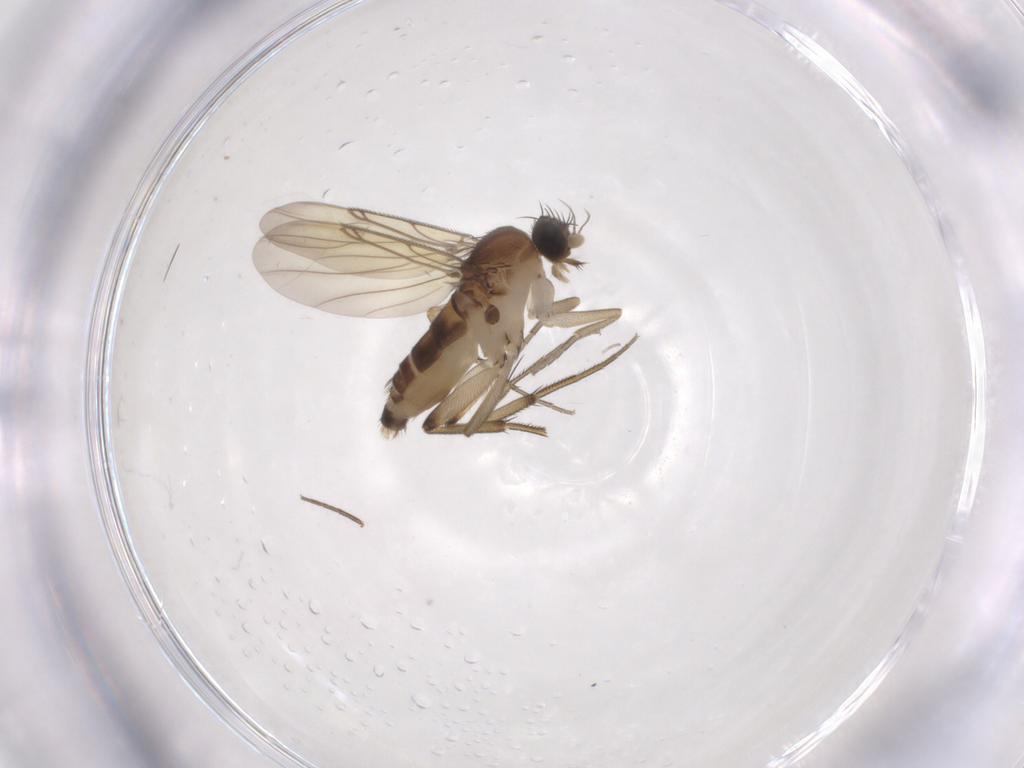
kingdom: Animalia
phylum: Arthropoda
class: Insecta
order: Diptera
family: Phoridae
